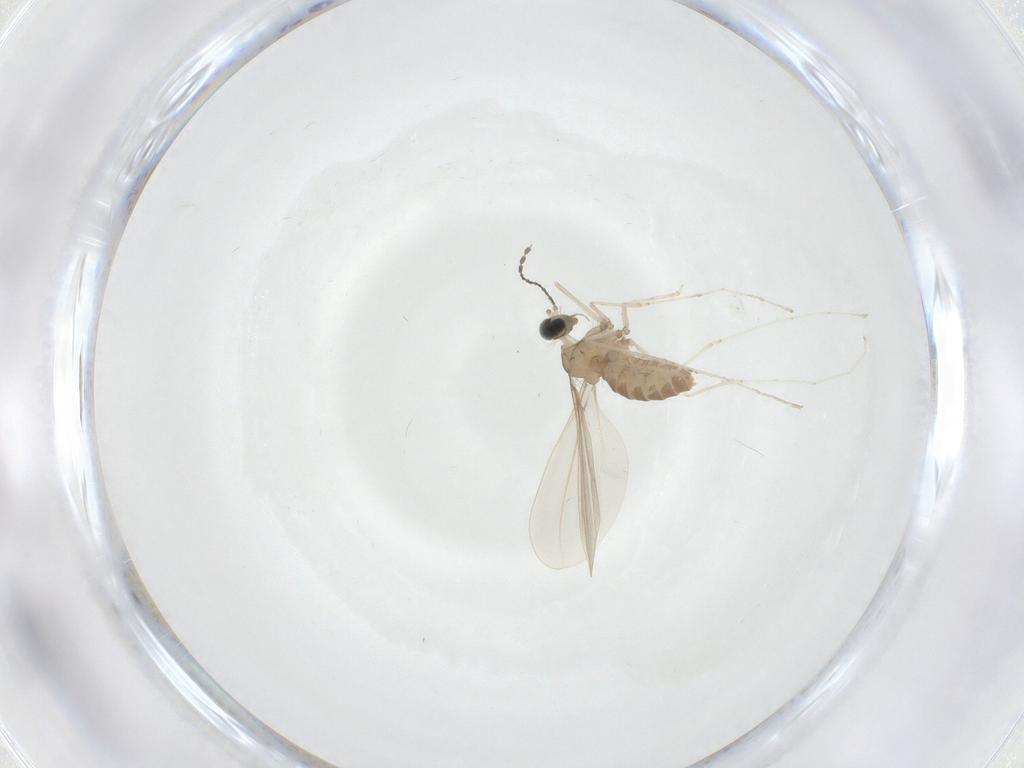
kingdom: Animalia
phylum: Arthropoda
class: Insecta
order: Diptera
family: Cecidomyiidae
